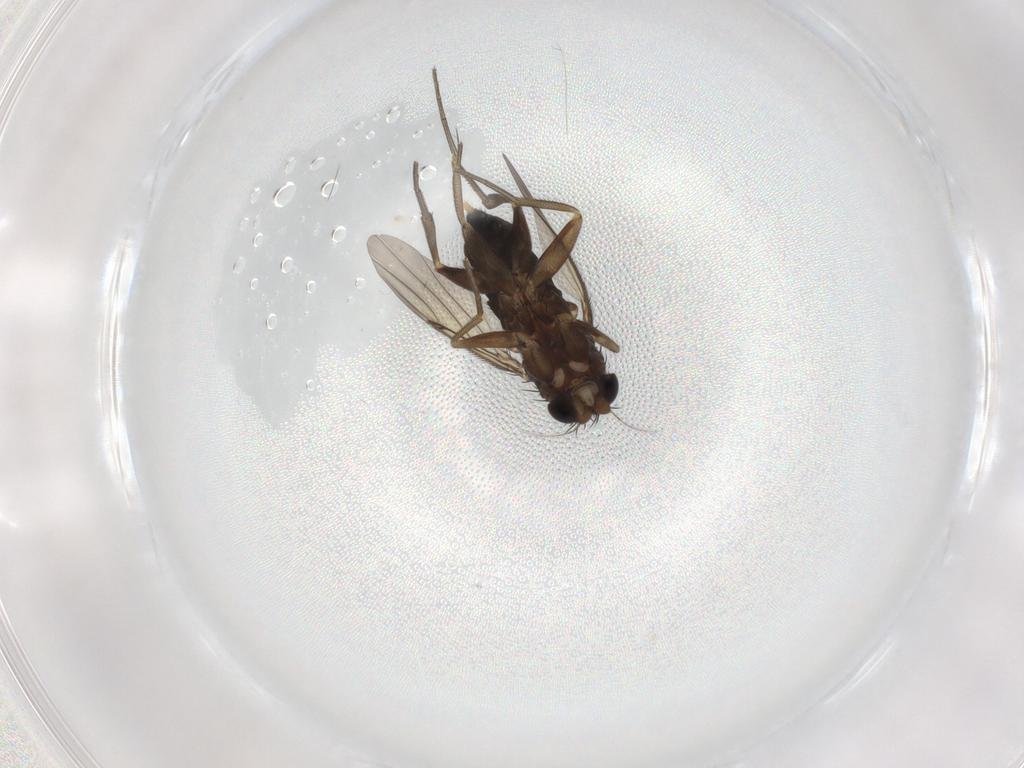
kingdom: Animalia
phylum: Arthropoda
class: Insecta
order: Diptera
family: Phoridae
